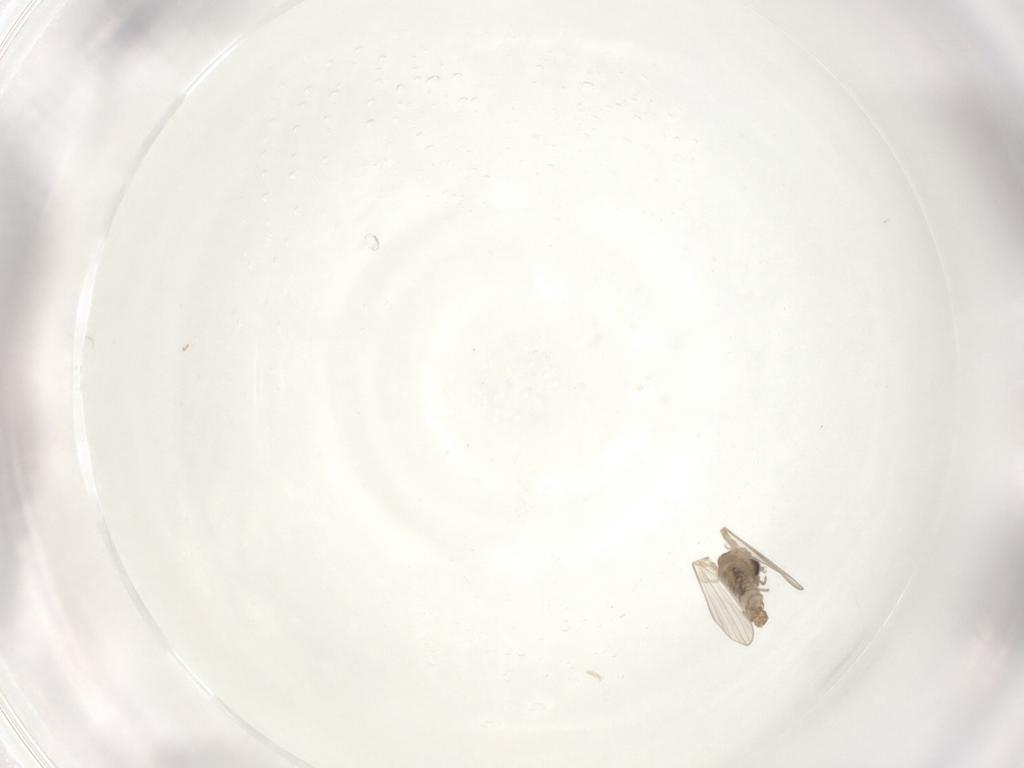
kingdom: Animalia
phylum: Arthropoda
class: Insecta
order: Diptera
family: Psychodidae
